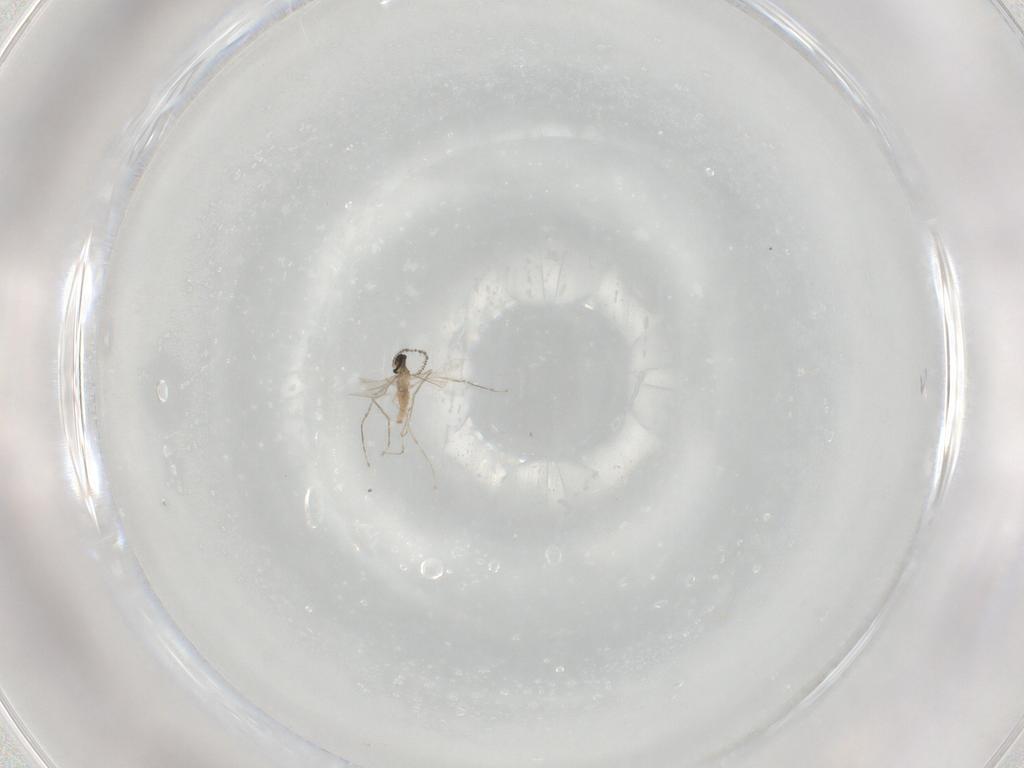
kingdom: Animalia
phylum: Arthropoda
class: Insecta
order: Diptera
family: Cecidomyiidae
